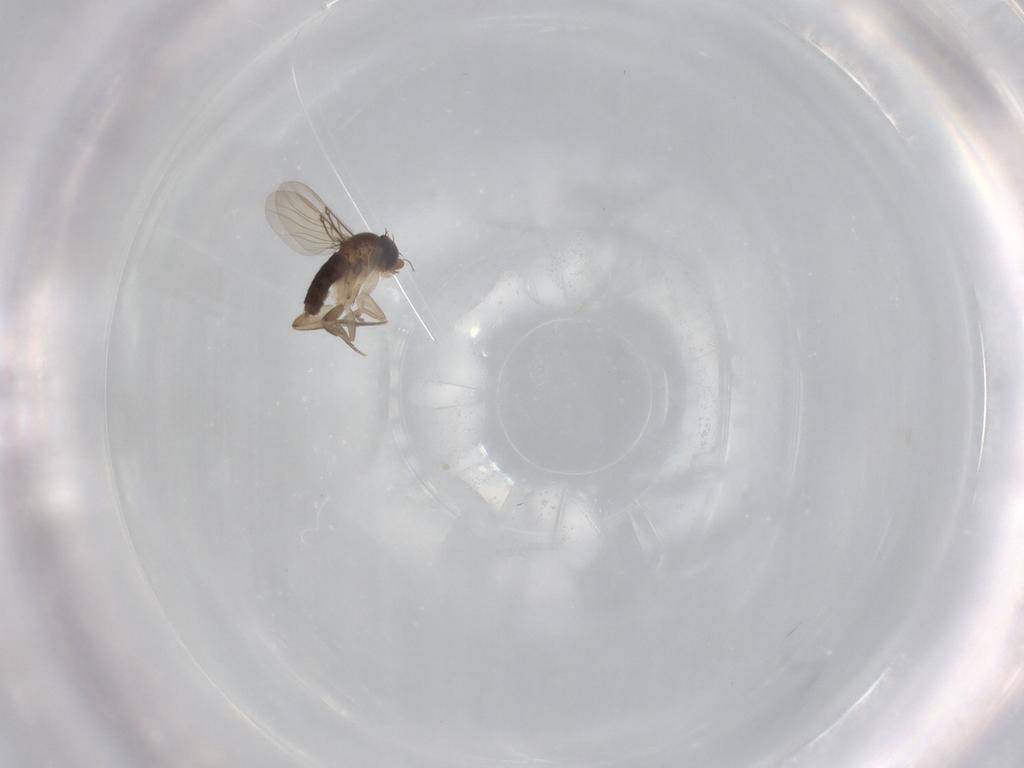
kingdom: Animalia
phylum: Arthropoda
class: Insecta
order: Diptera
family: Phoridae
